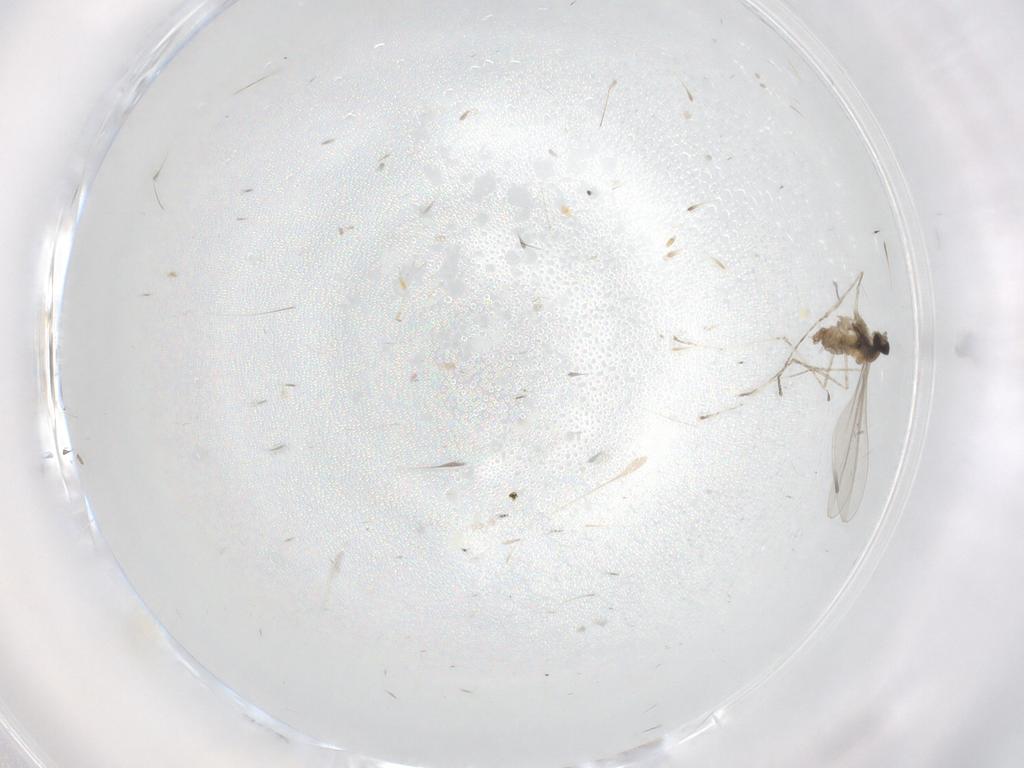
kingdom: Animalia
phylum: Arthropoda
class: Insecta
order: Diptera
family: Cecidomyiidae
